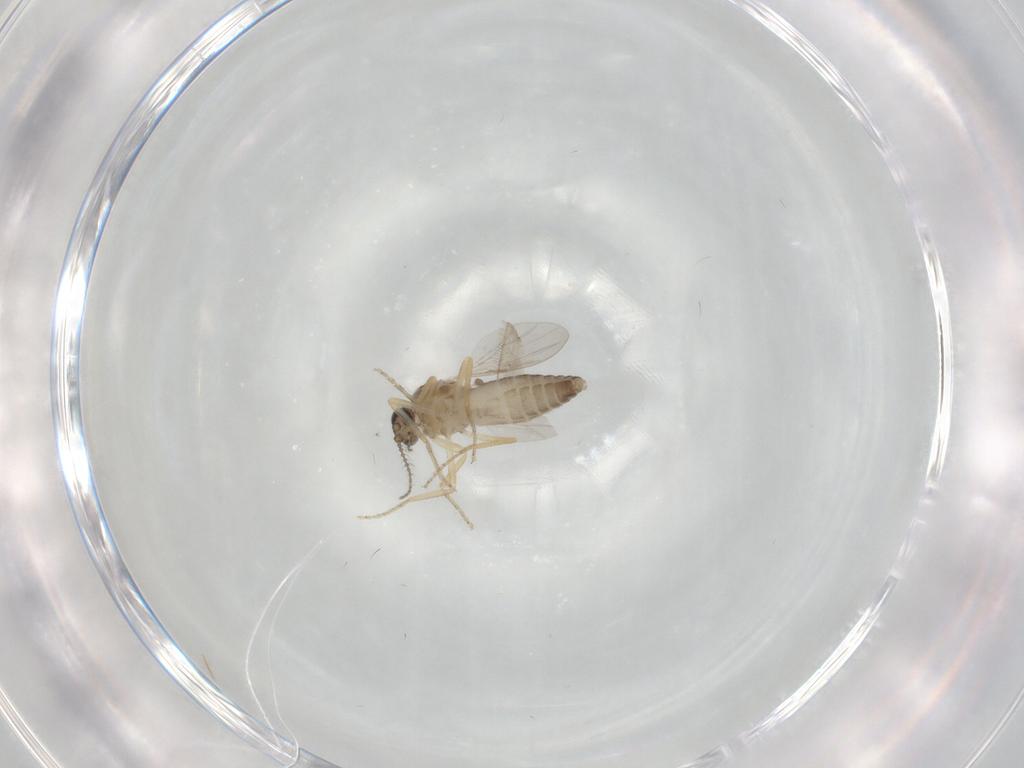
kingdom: Animalia
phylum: Arthropoda
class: Insecta
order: Diptera
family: Ceratopogonidae
